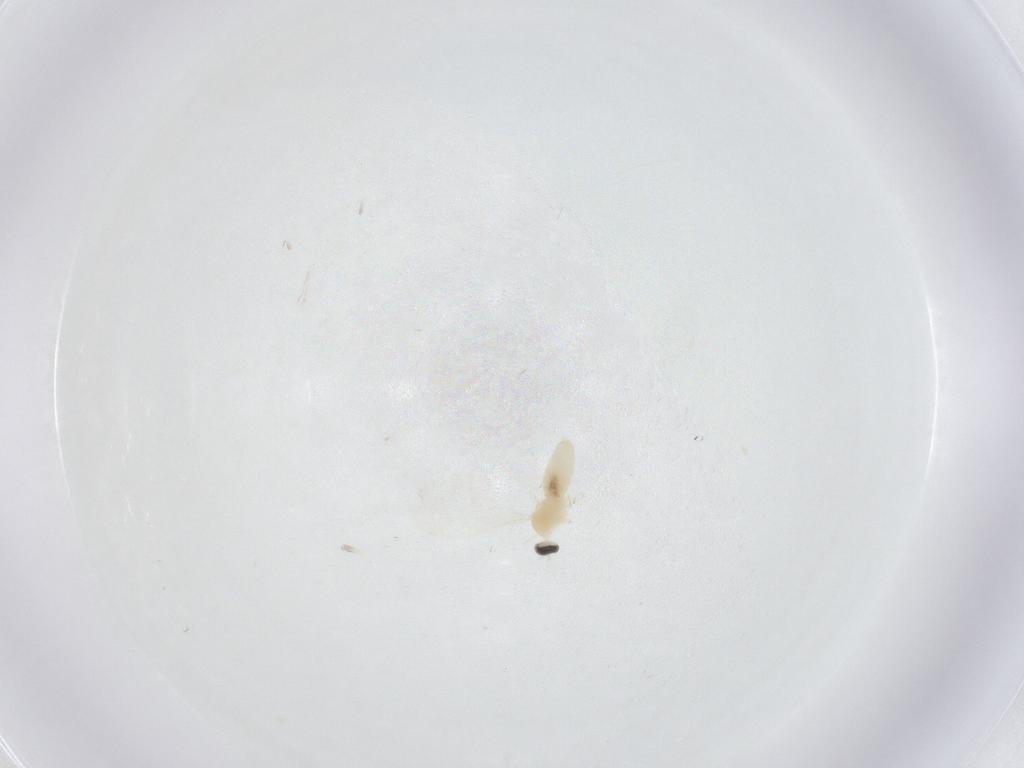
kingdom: Animalia
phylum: Arthropoda
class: Insecta
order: Diptera
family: Cecidomyiidae
